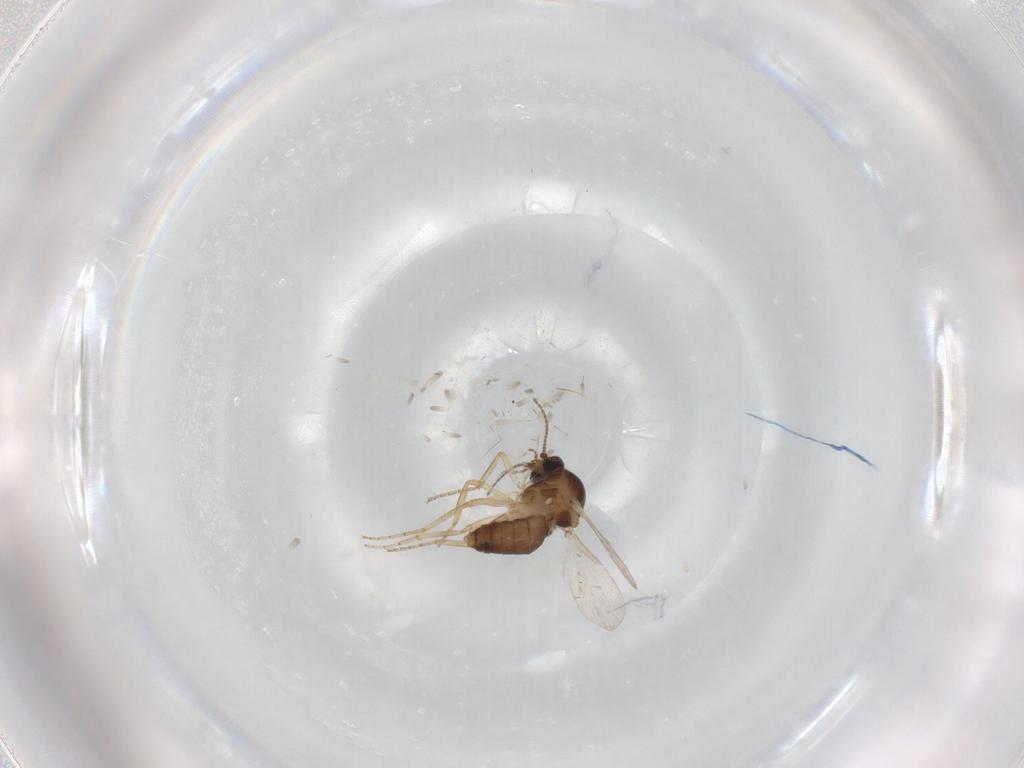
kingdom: Animalia
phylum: Arthropoda
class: Insecta
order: Diptera
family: Ceratopogonidae
